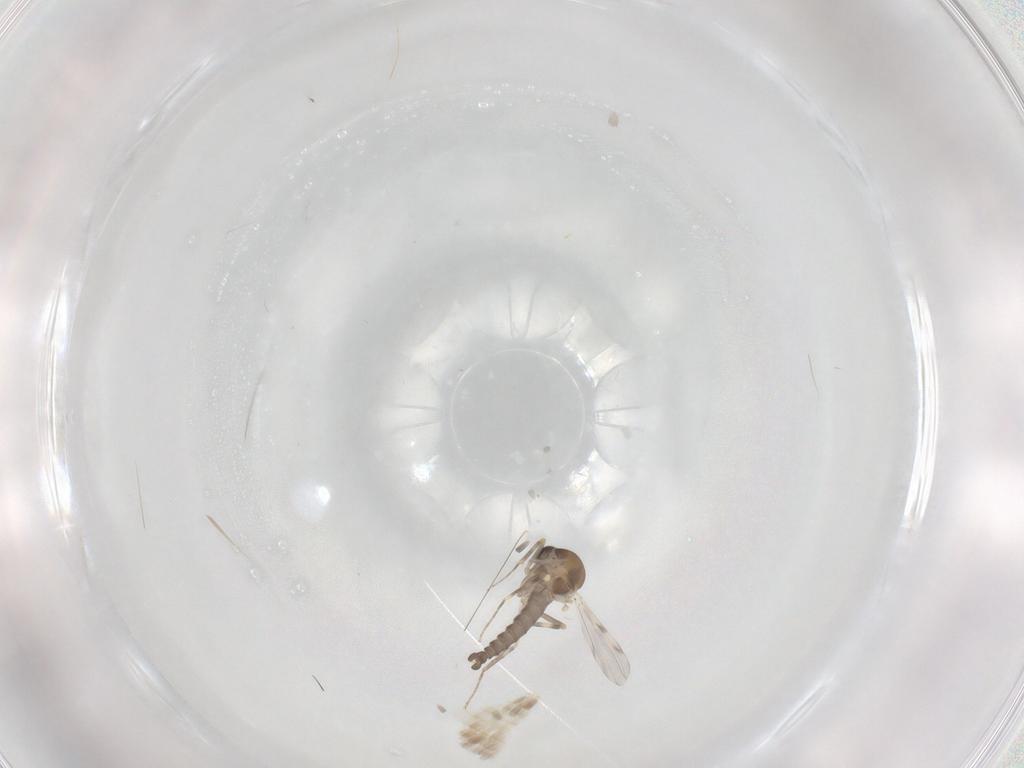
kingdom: Animalia
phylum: Arthropoda
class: Insecta
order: Diptera
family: Ceratopogonidae
